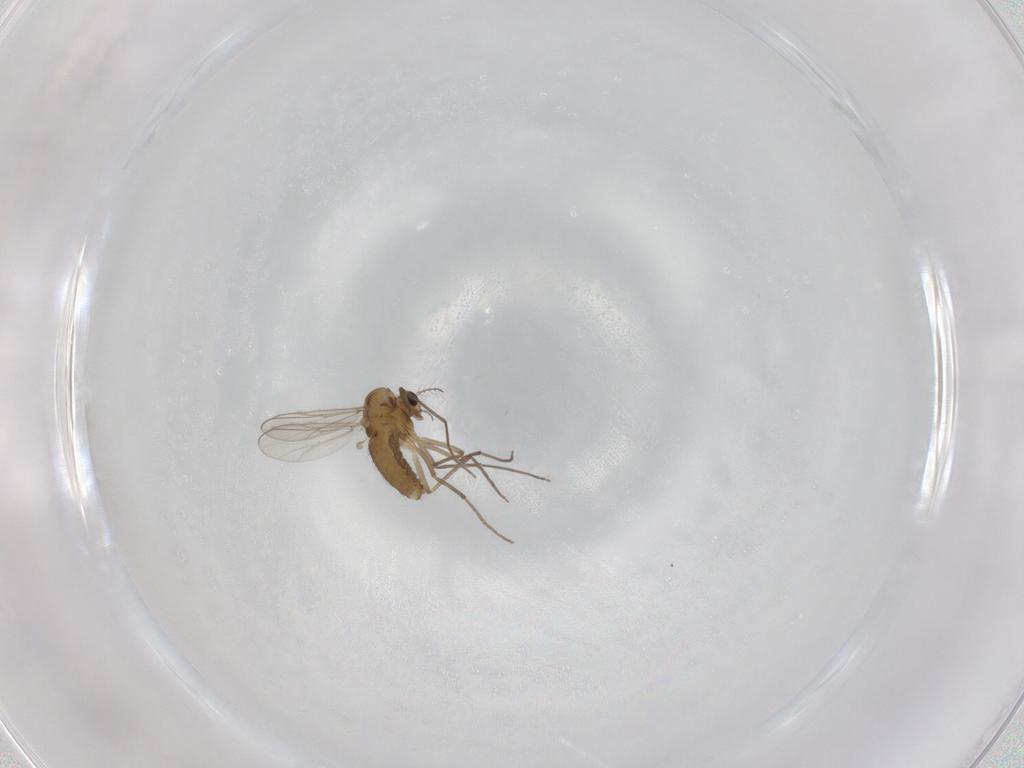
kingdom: Animalia
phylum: Arthropoda
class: Insecta
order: Diptera
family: Chironomidae
